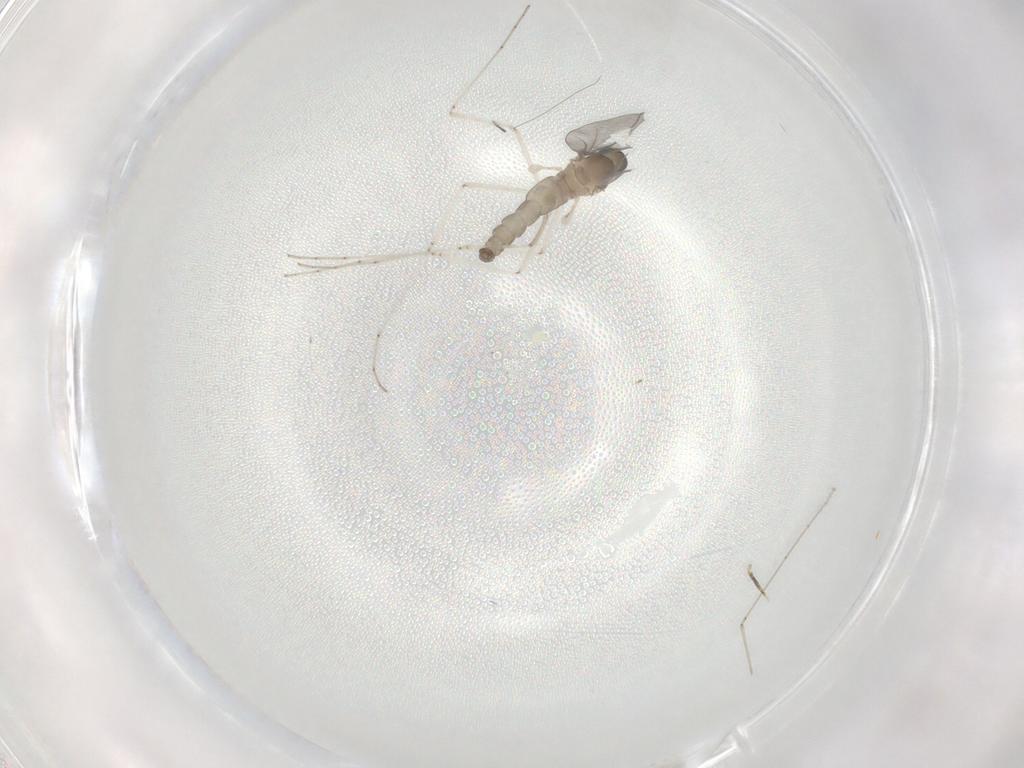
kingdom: Animalia
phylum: Arthropoda
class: Insecta
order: Diptera
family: Cecidomyiidae
